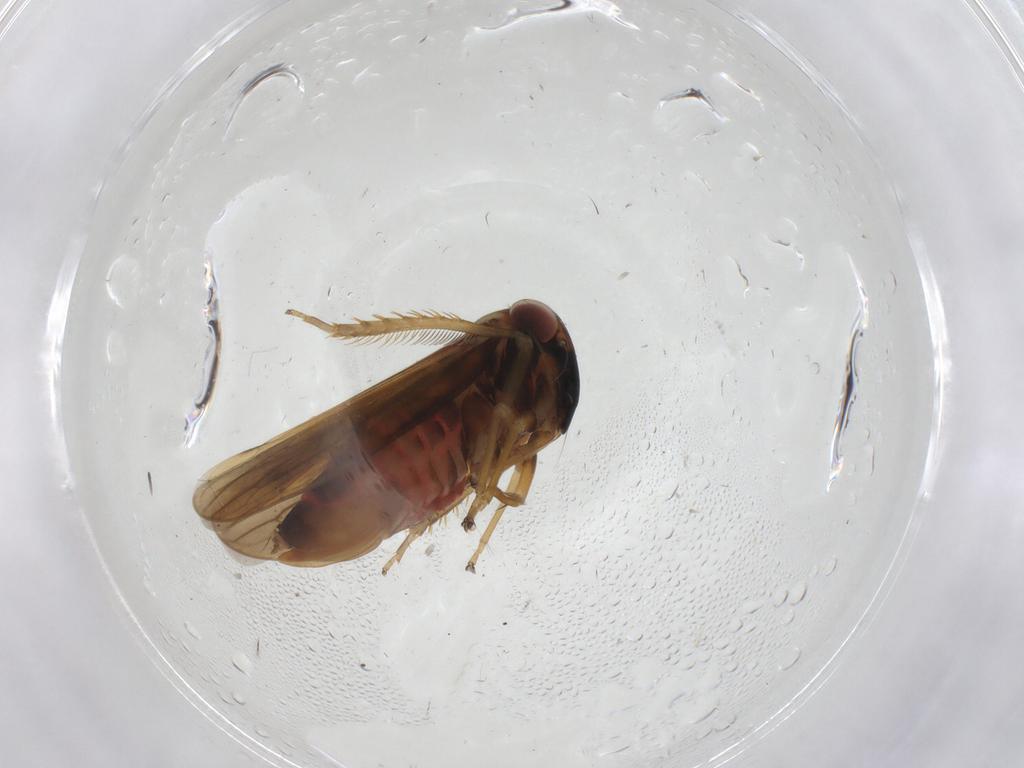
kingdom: Animalia
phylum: Arthropoda
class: Insecta
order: Hemiptera
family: Cicadellidae
